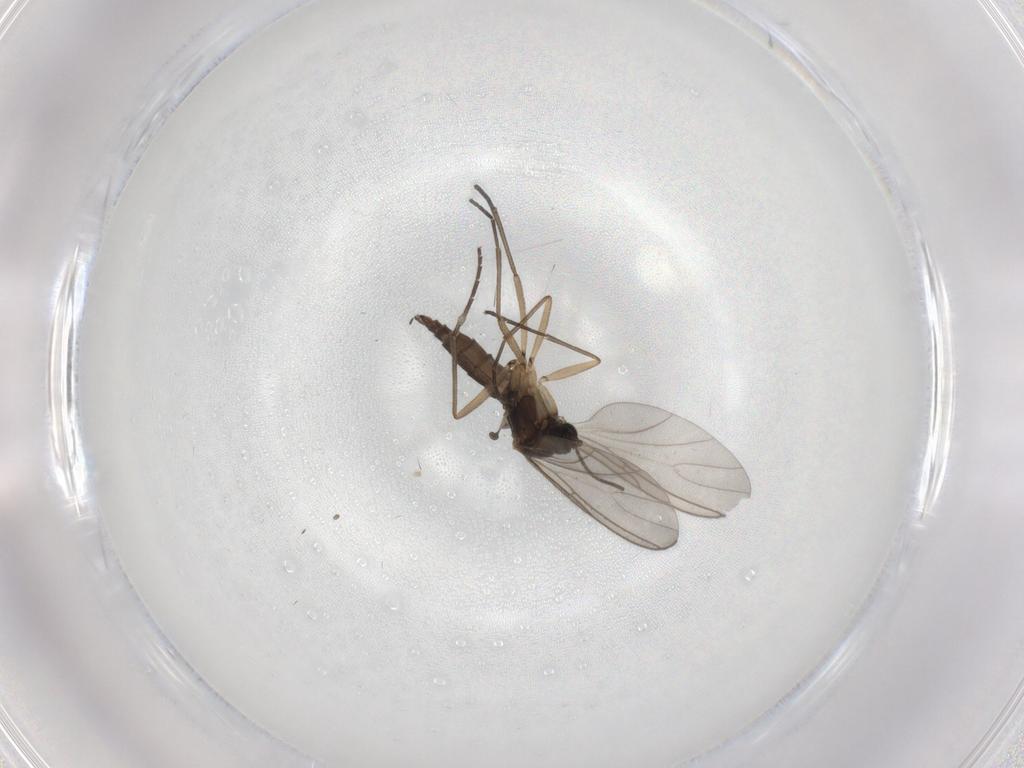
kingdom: Animalia
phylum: Arthropoda
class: Insecta
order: Diptera
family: Sciaridae
